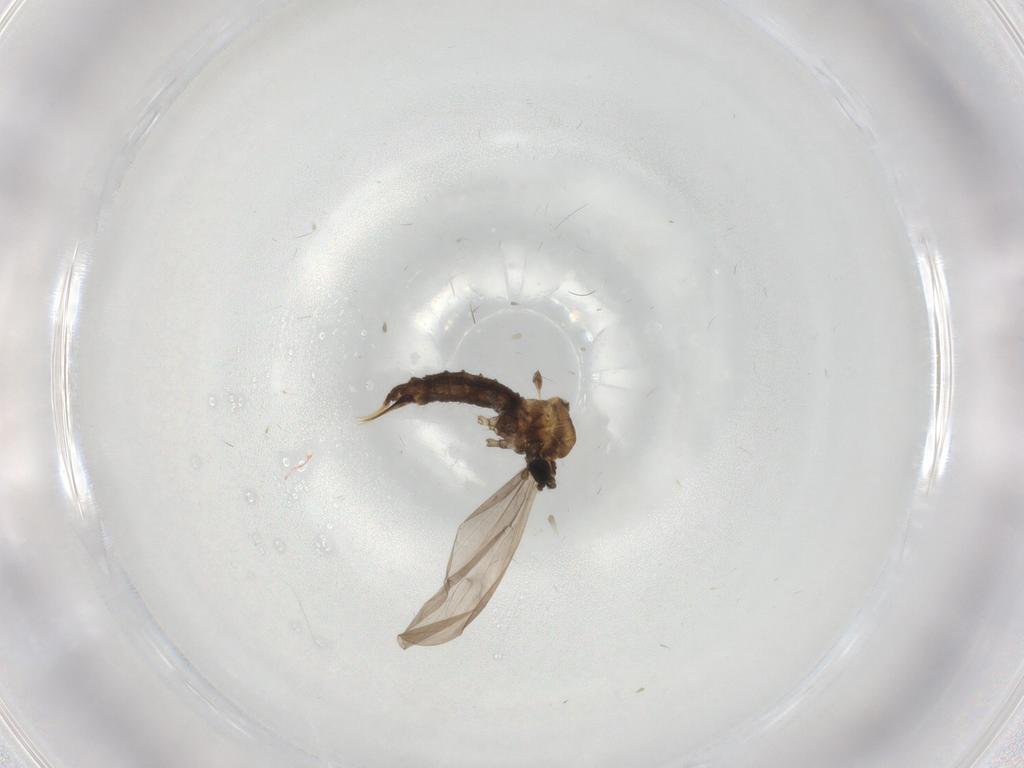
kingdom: Animalia
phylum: Arthropoda
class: Insecta
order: Diptera
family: Limoniidae
